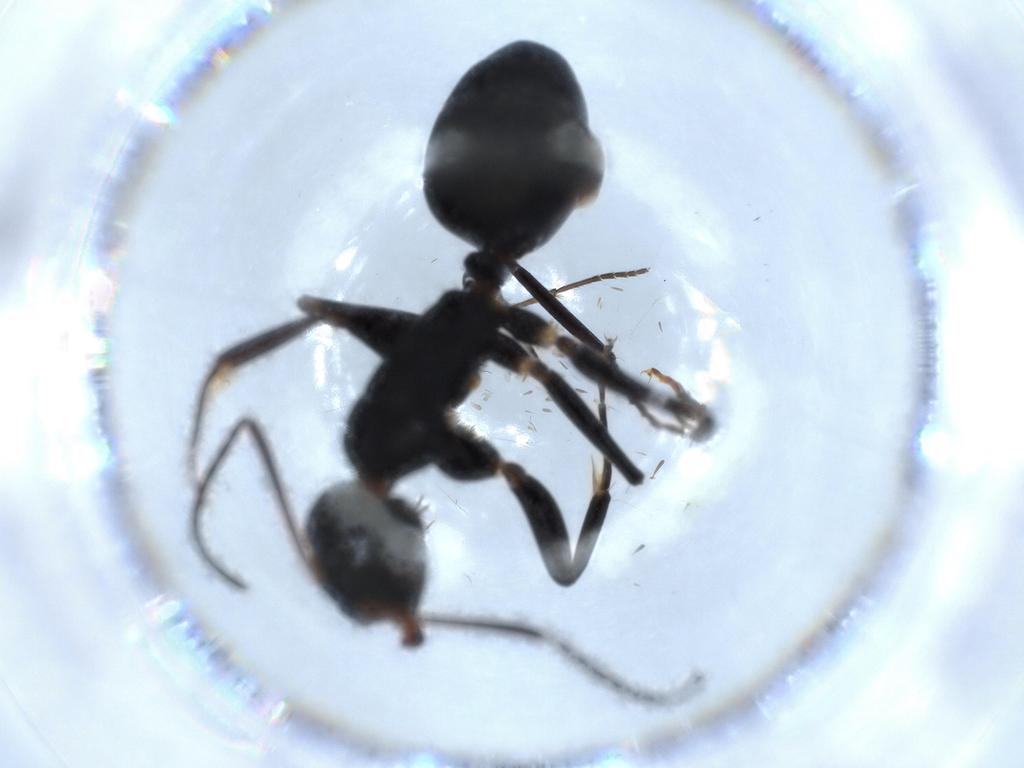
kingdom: Animalia
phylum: Arthropoda
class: Insecta
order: Hymenoptera
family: Formicidae
